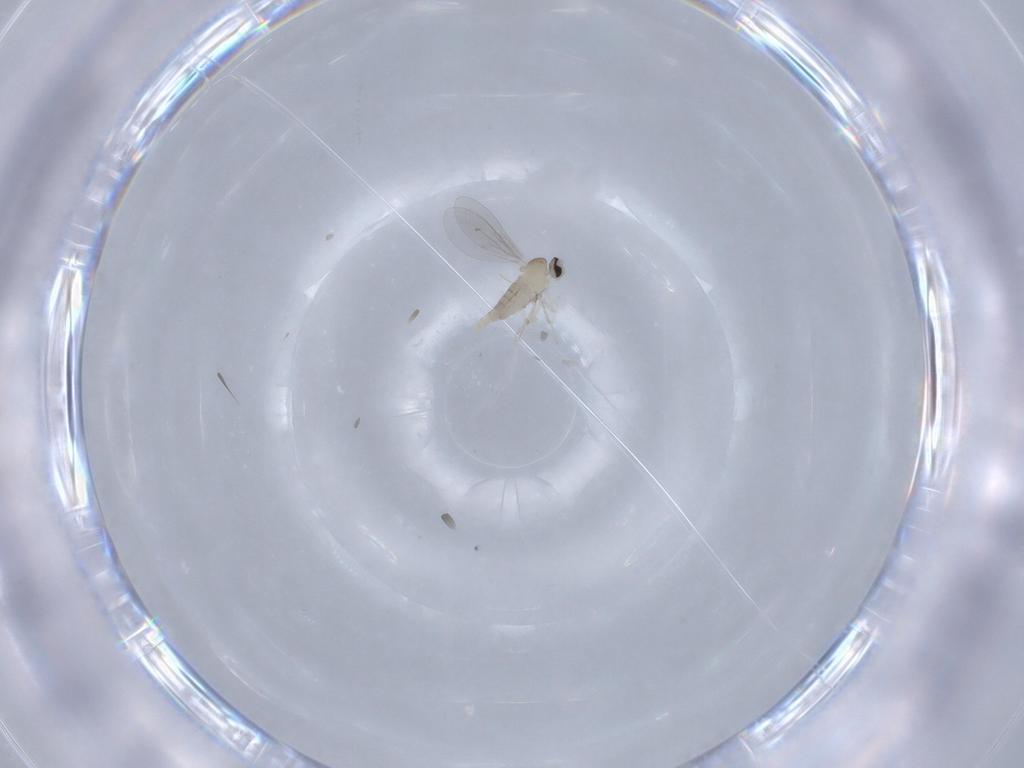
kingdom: Animalia
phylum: Arthropoda
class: Insecta
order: Diptera
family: Cecidomyiidae
